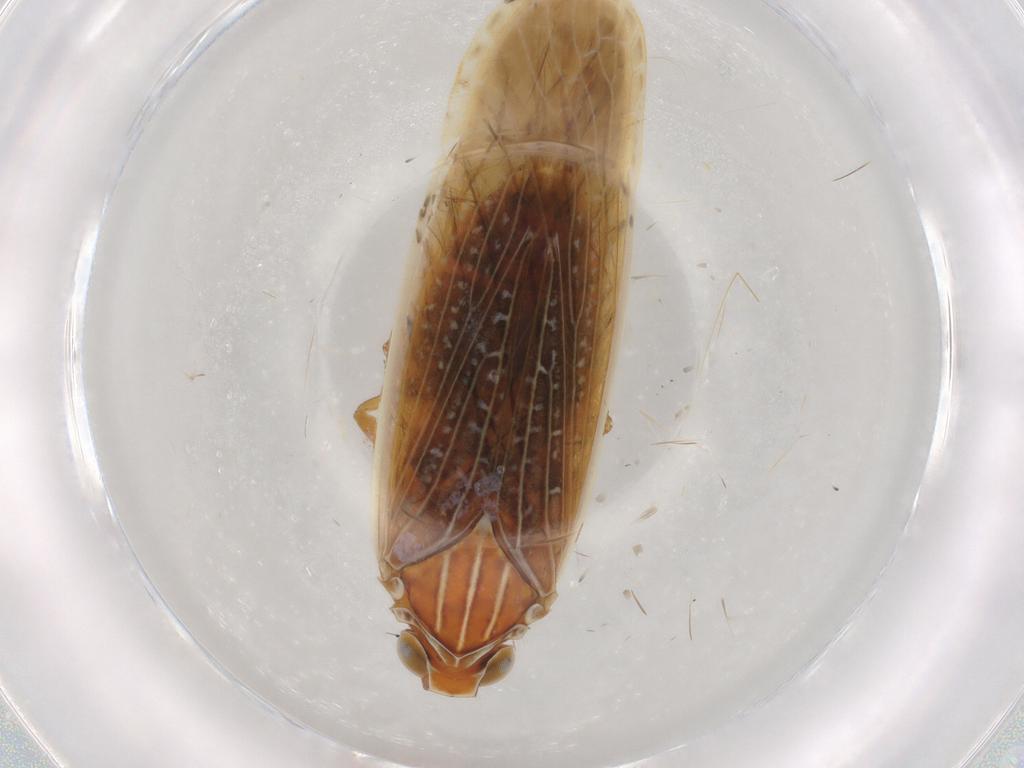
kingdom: Animalia
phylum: Arthropoda
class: Insecta
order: Hemiptera
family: Achilidae
